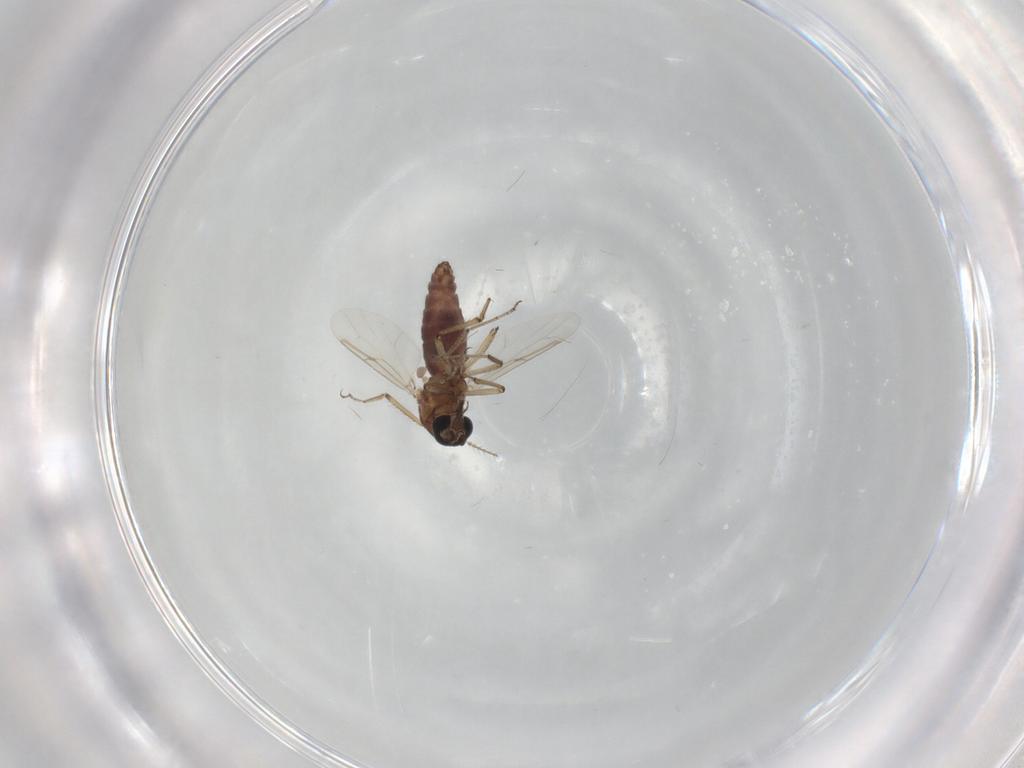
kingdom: Animalia
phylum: Arthropoda
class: Insecta
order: Diptera
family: Ceratopogonidae
